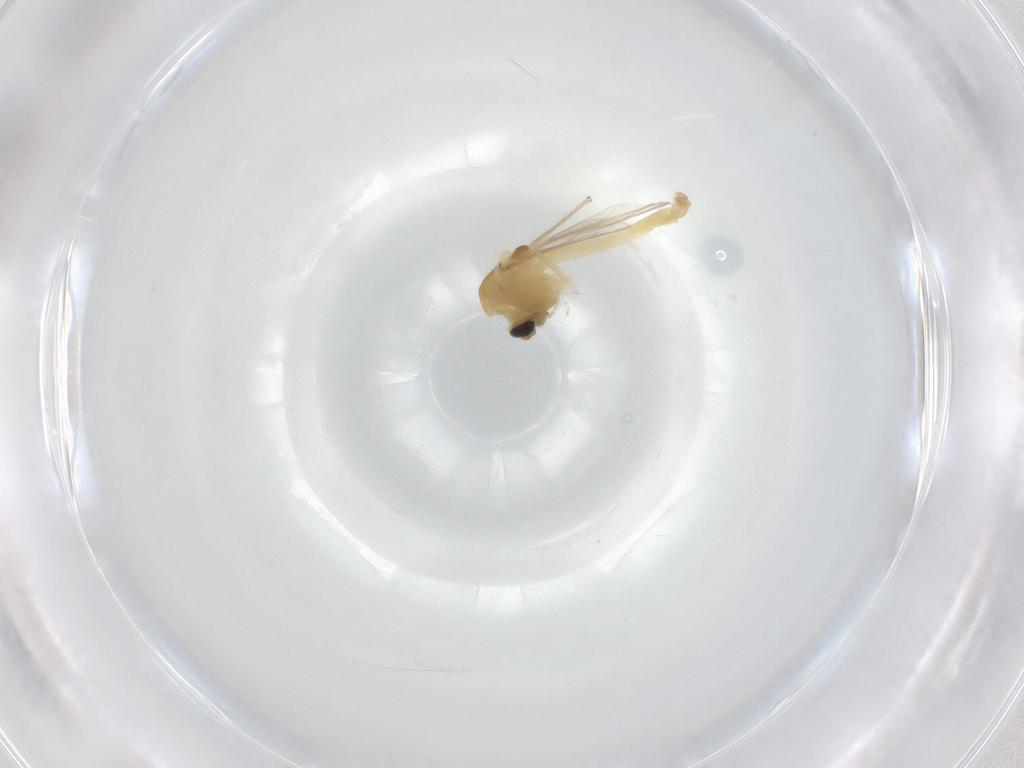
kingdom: Animalia
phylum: Arthropoda
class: Insecta
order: Diptera
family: Chironomidae
